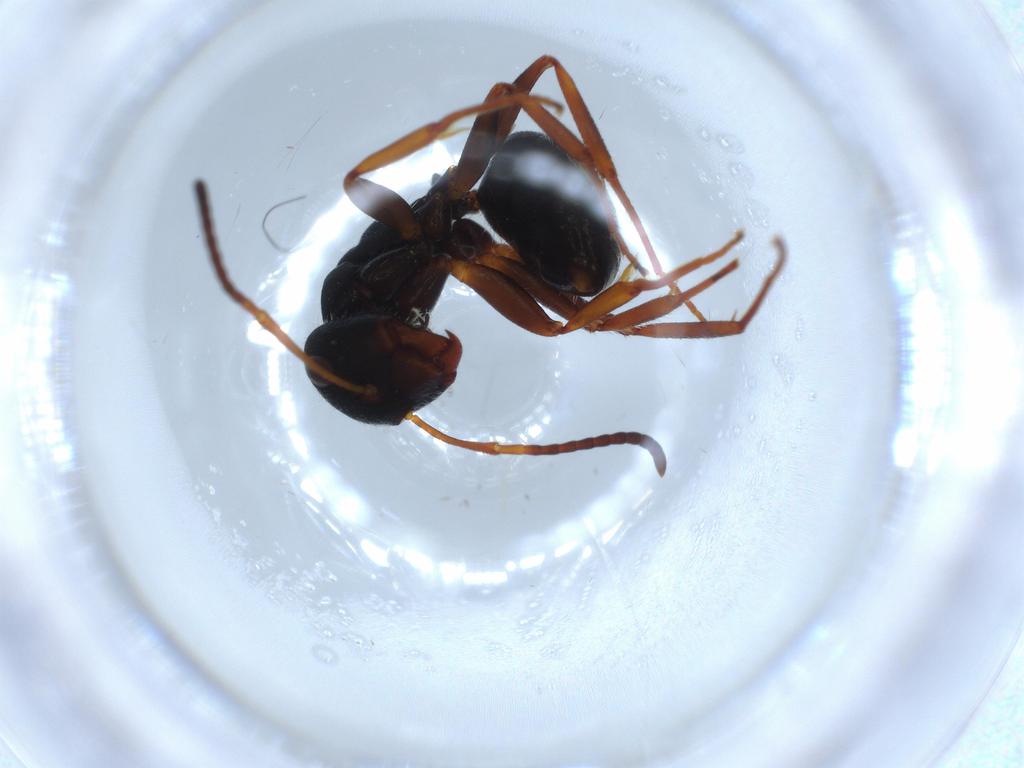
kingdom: Animalia
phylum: Arthropoda
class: Insecta
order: Hymenoptera
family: Formicidae
